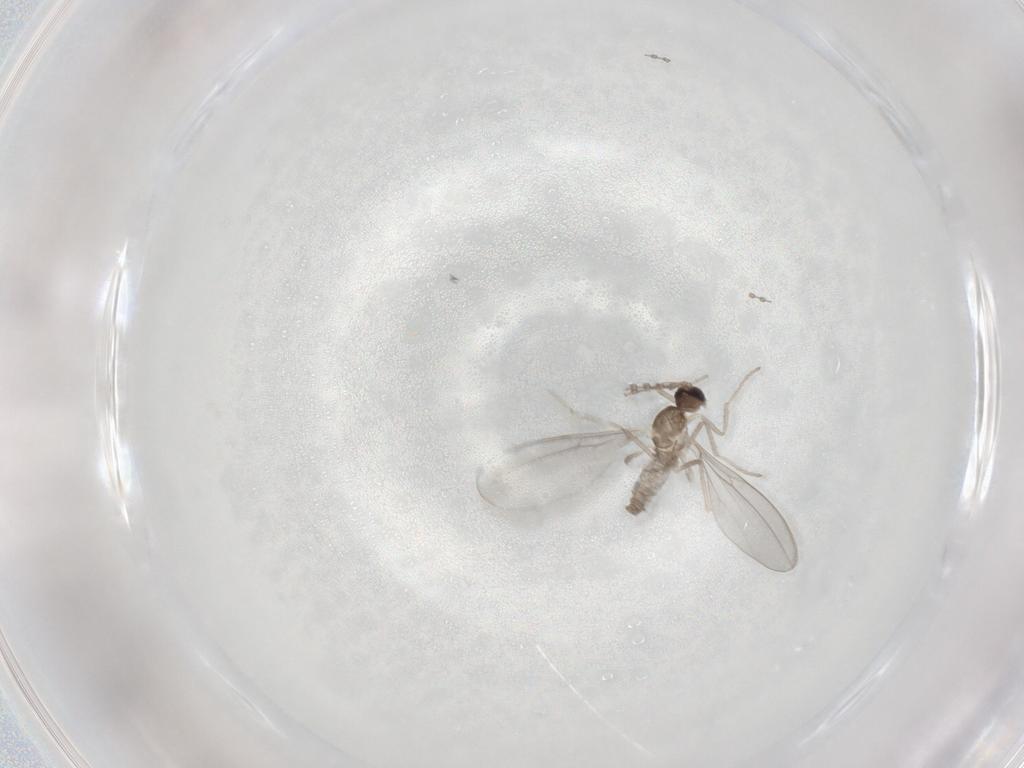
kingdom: Animalia
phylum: Arthropoda
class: Insecta
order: Diptera
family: Cecidomyiidae
